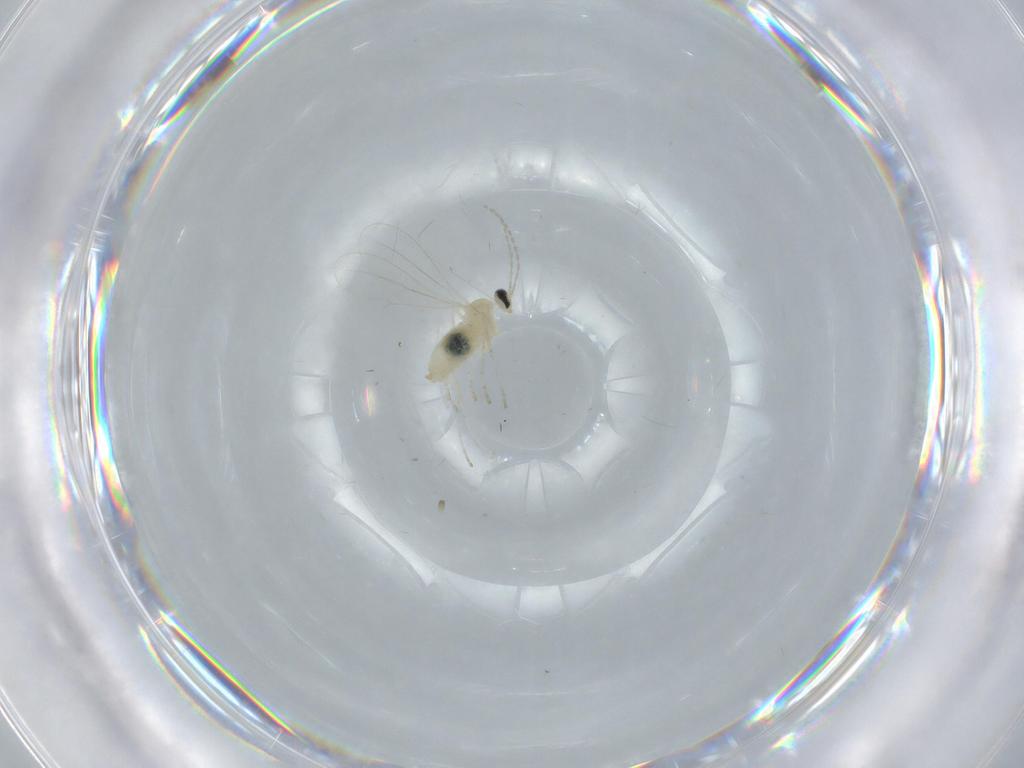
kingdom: Animalia
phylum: Arthropoda
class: Insecta
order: Diptera
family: Cecidomyiidae
